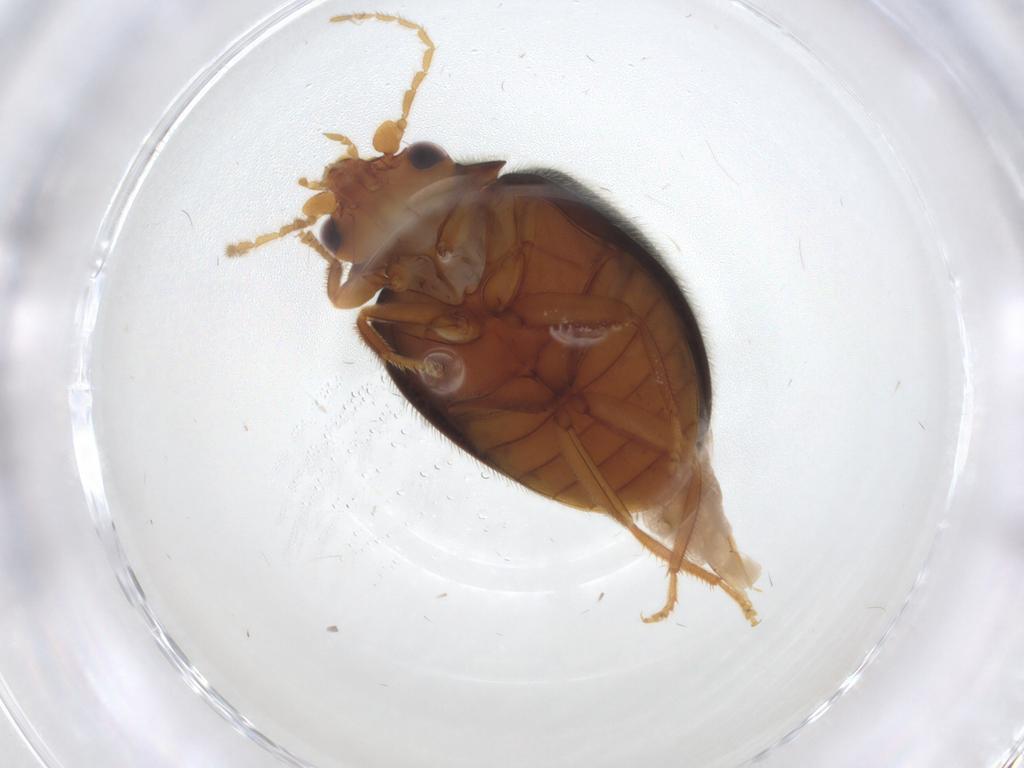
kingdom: Animalia
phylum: Arthropoda
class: Insecta
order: Coleoptera
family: Scirtidae
